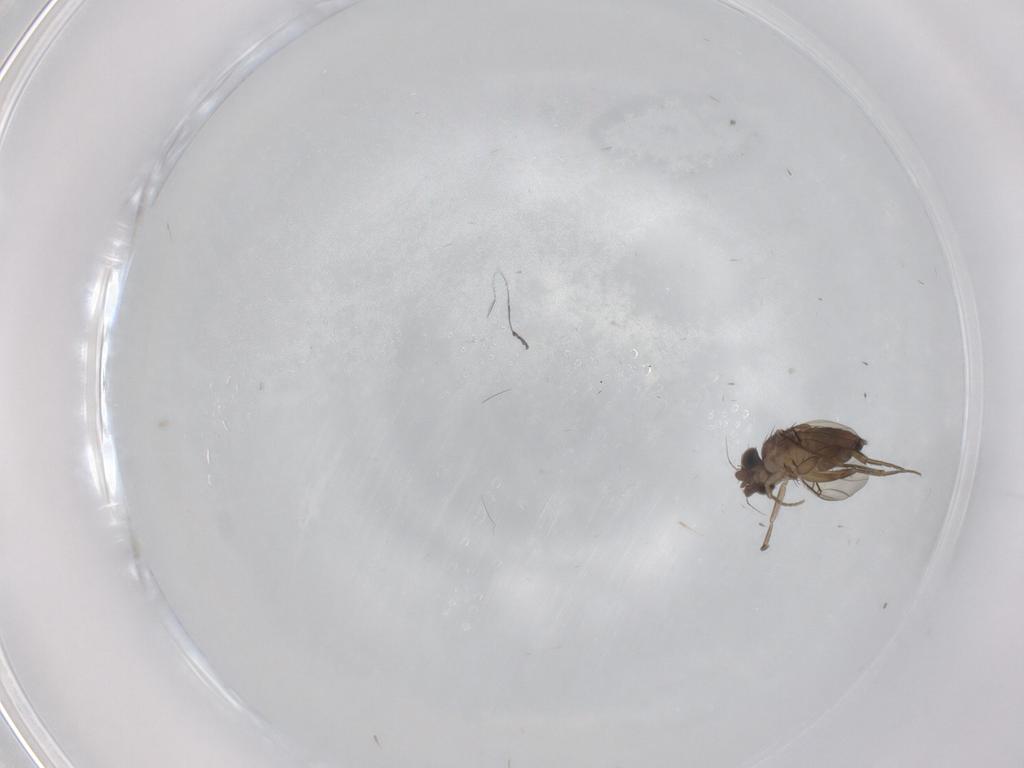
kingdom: Animalia
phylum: Arthropoda
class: Insecta
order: Diptera
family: Phoridae
